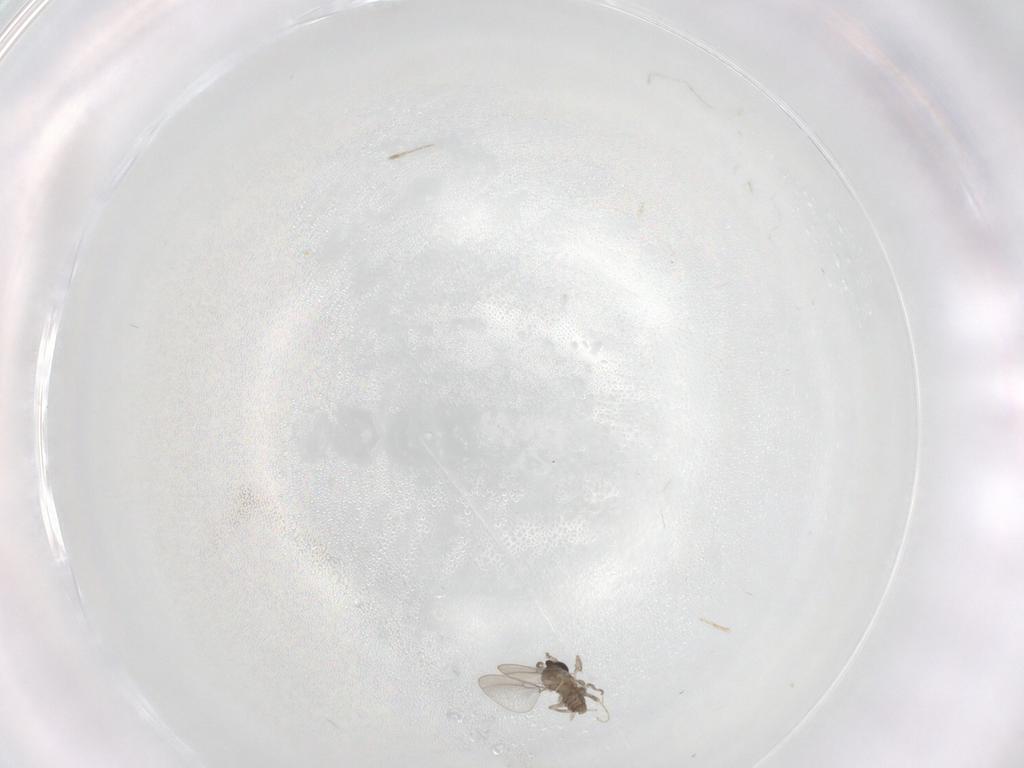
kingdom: Animalia
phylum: Arthropoda
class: Insecta
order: Diptera
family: Cecidomyiidae
